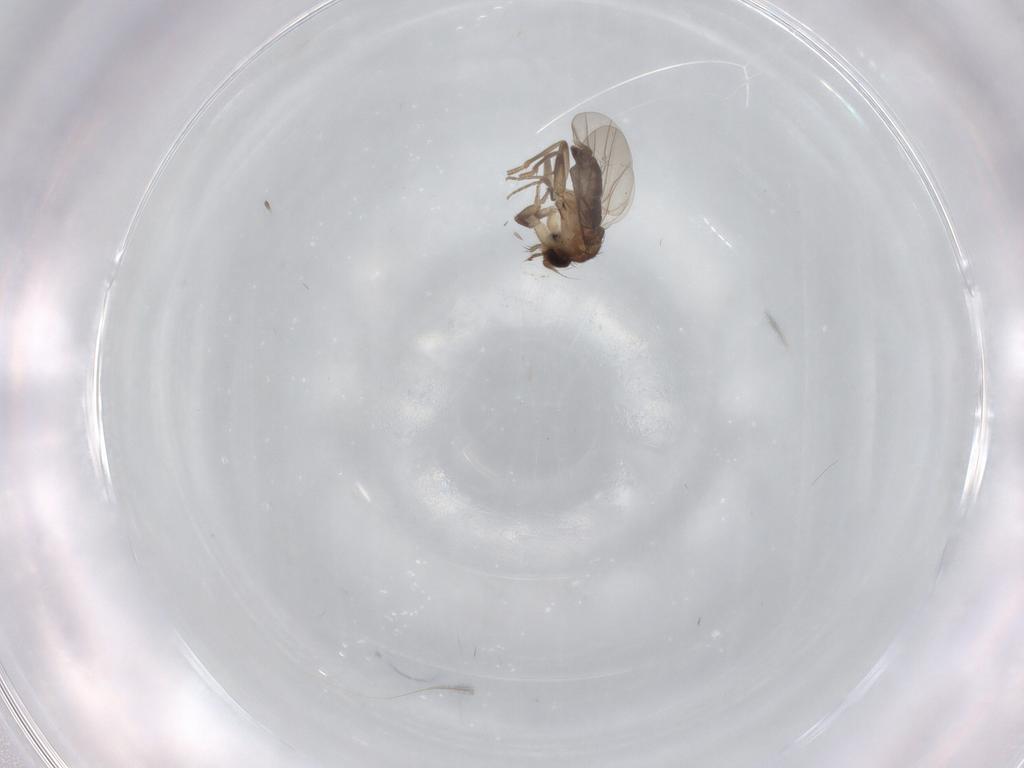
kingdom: Animalia
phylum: Arthropoda
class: Insecta
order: Diptera
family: Phoridae
